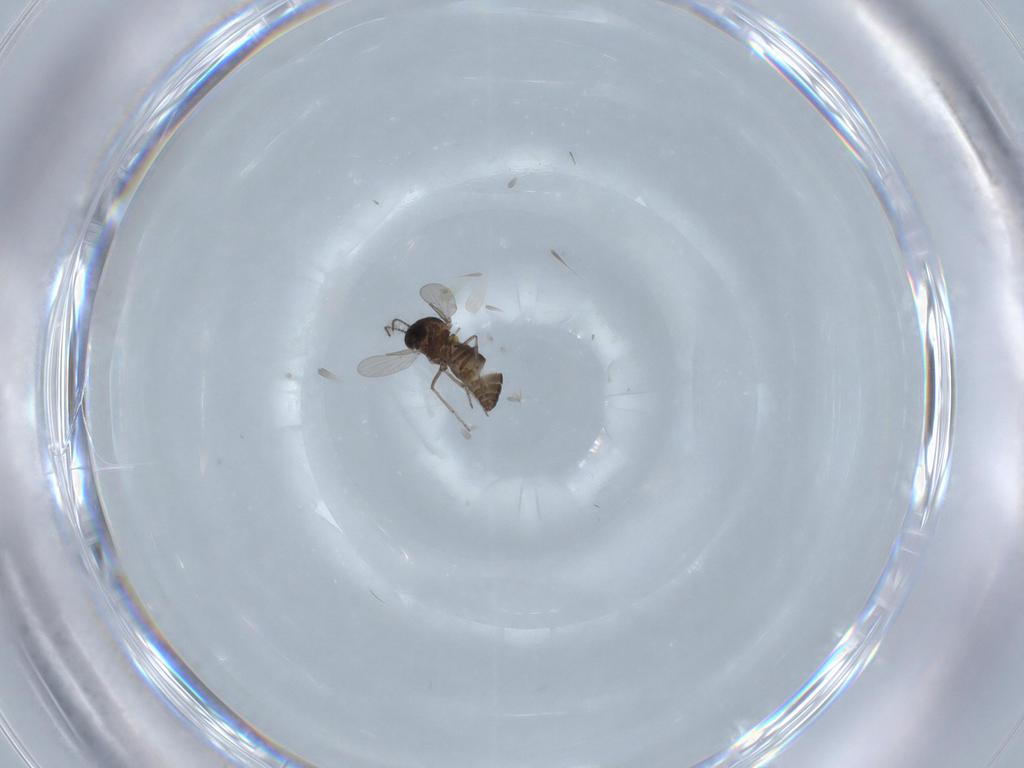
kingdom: Animalia
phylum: Arthropoda
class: Insecta
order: Diptera
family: Ceratopogonidae
